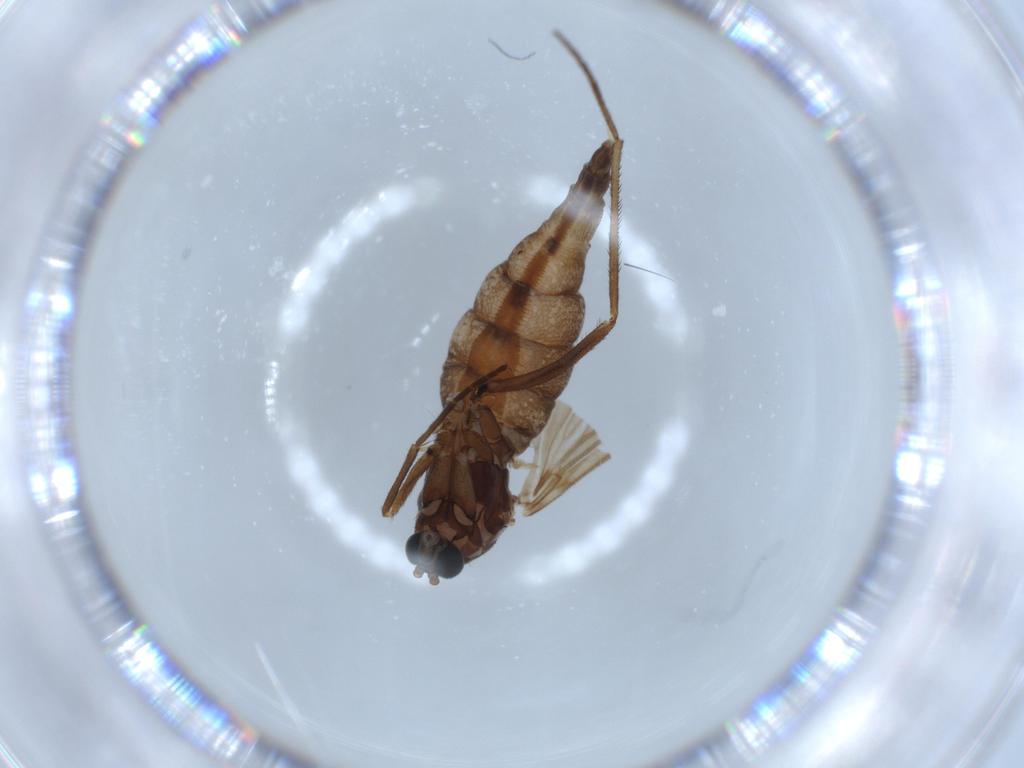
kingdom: Animalia
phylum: Arthropoda
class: Insecta
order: Diptera
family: Sciaridae
